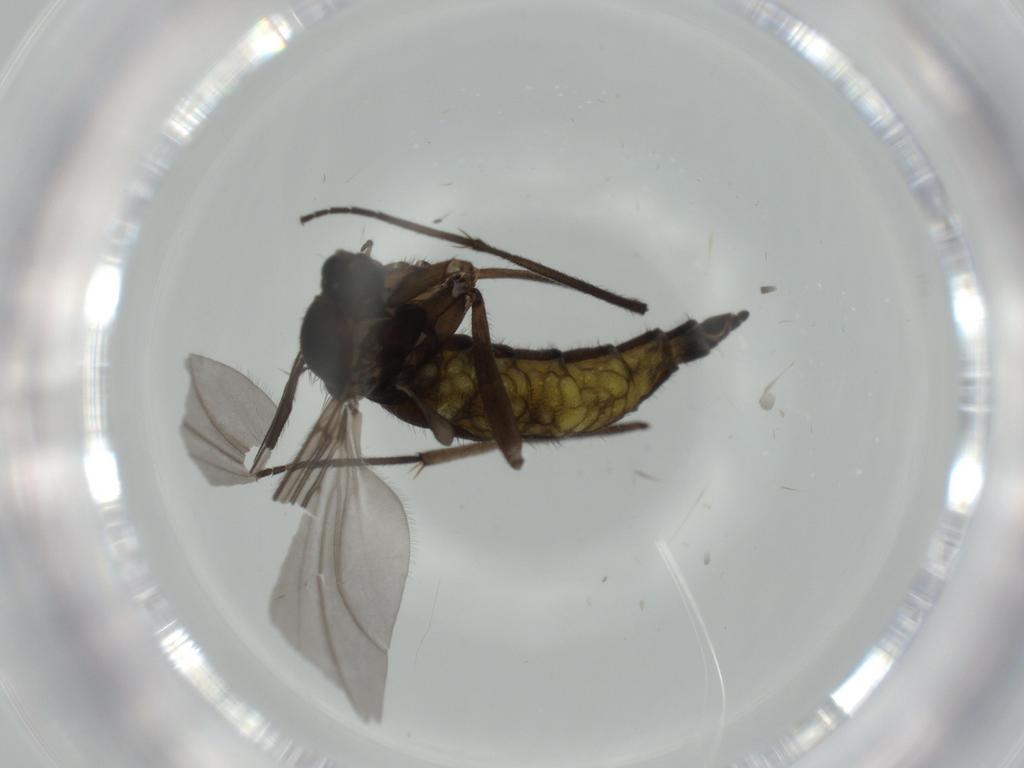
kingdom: Animalia
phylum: Arthropoda
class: Insecta
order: Diptera
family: Sciaridae
